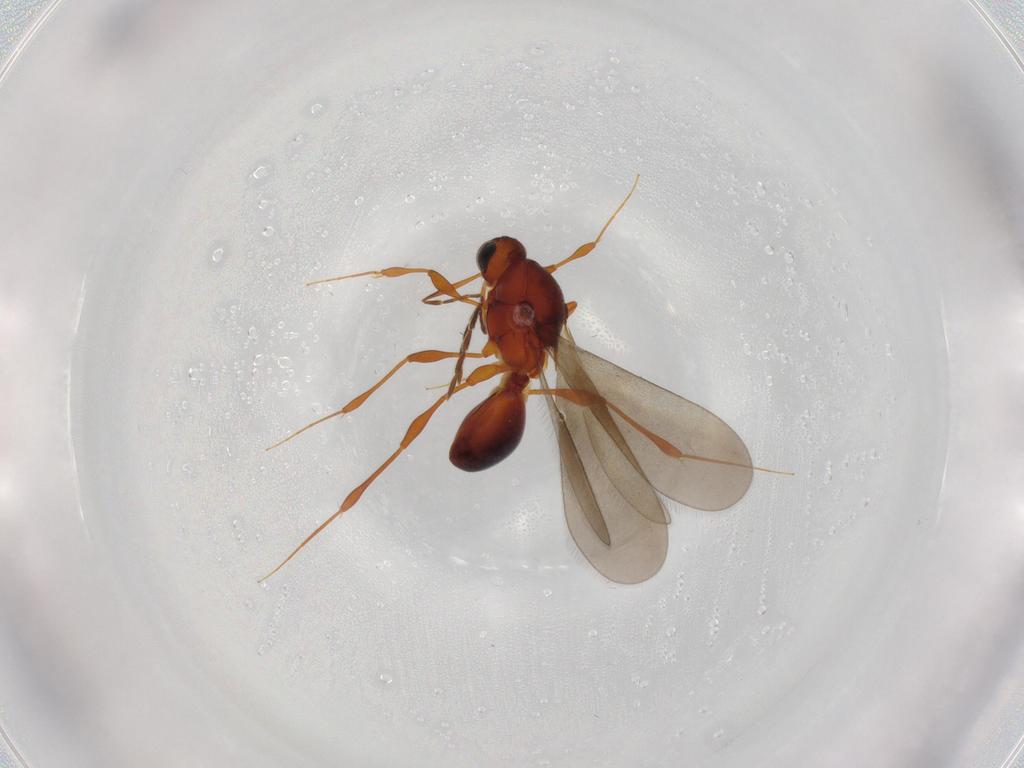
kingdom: Animalia
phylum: Arthropoda
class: Insecta
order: Hymenoptera
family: Platygastridae
